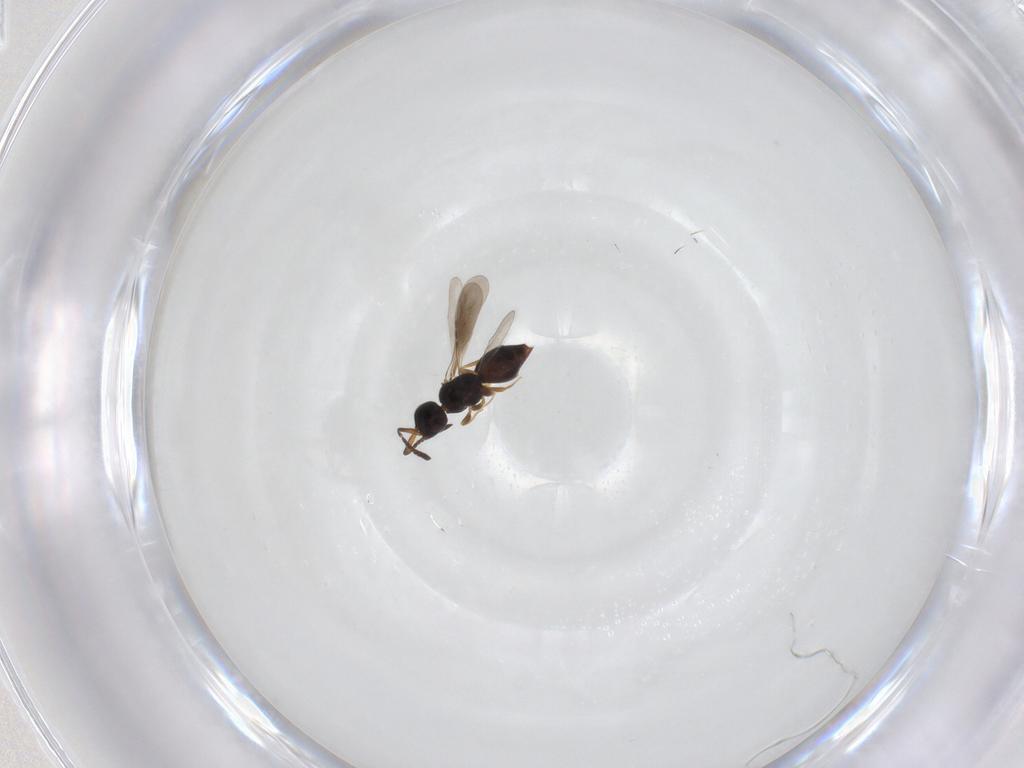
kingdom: Animalia
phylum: Arthropoda
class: Insecta
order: Hymenoptera
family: Ceraphronidae
